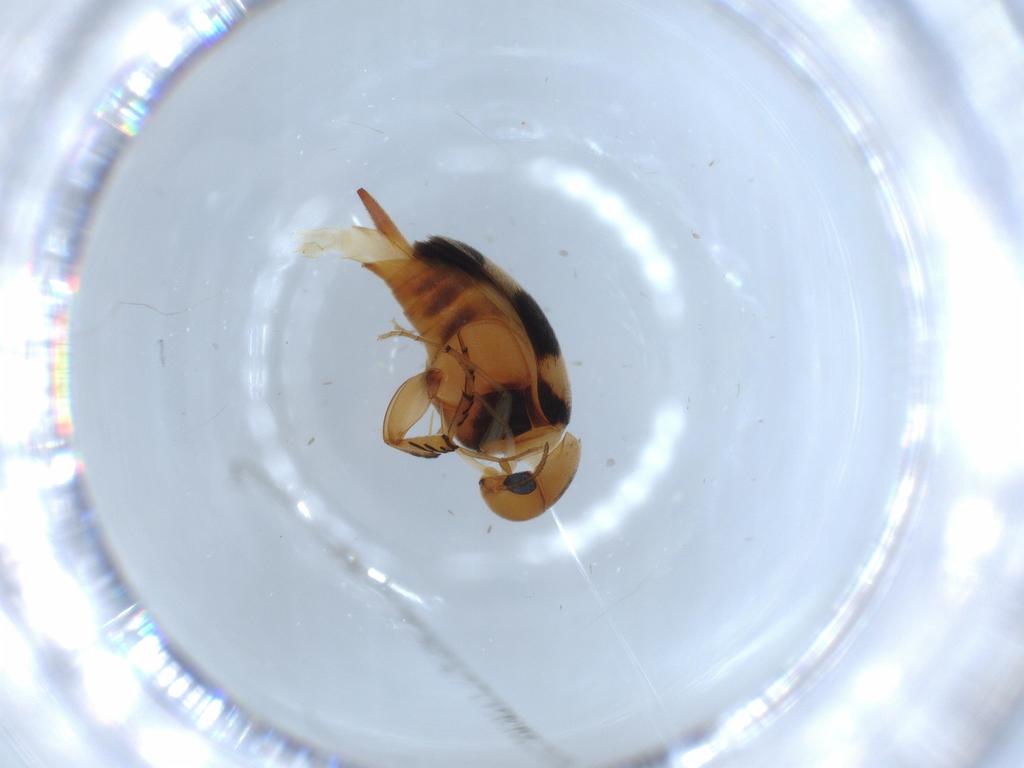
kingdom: Animalia
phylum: Arthropoda
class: Insecta
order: Coleoptera
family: Mordellidae
